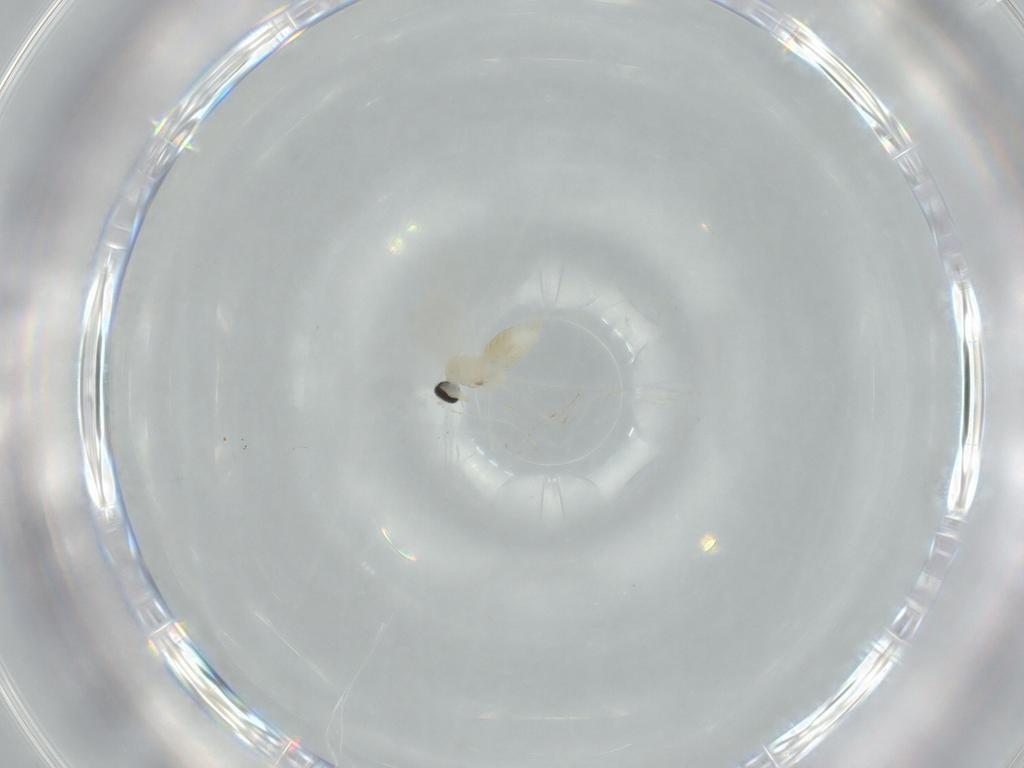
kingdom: Animalia
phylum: Arthropoda
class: Insecta
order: Diptera
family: Cecidomyiidae
